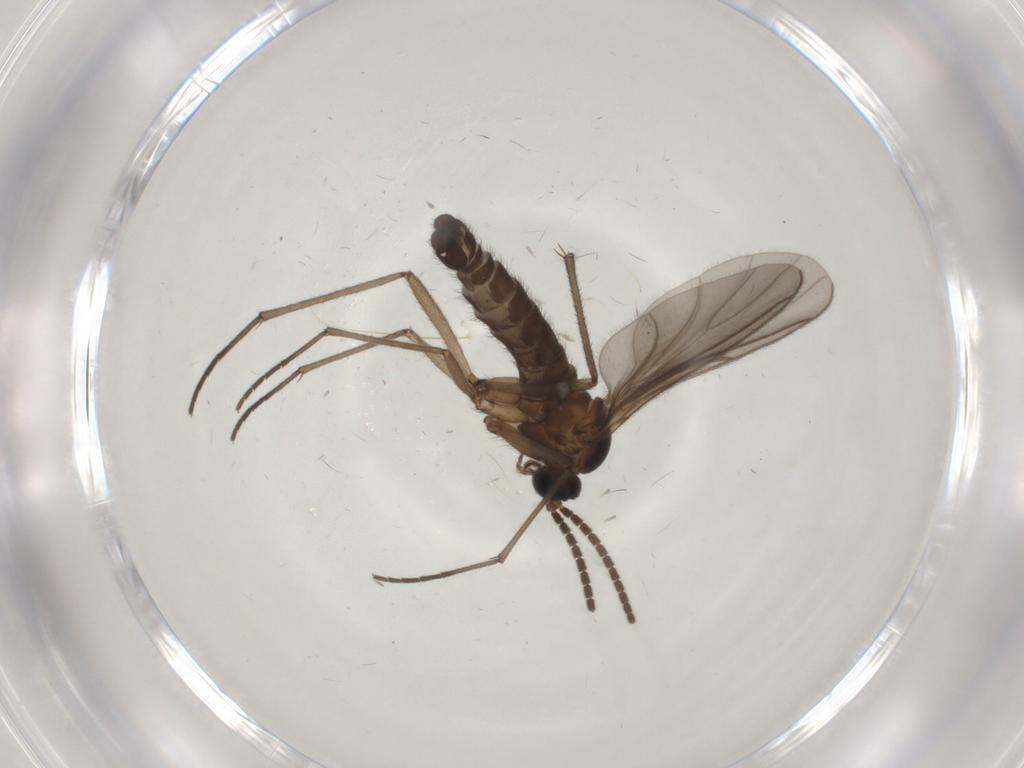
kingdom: Animalia
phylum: Arthropoda
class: Insecta
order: Diptera
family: Sciaridae
